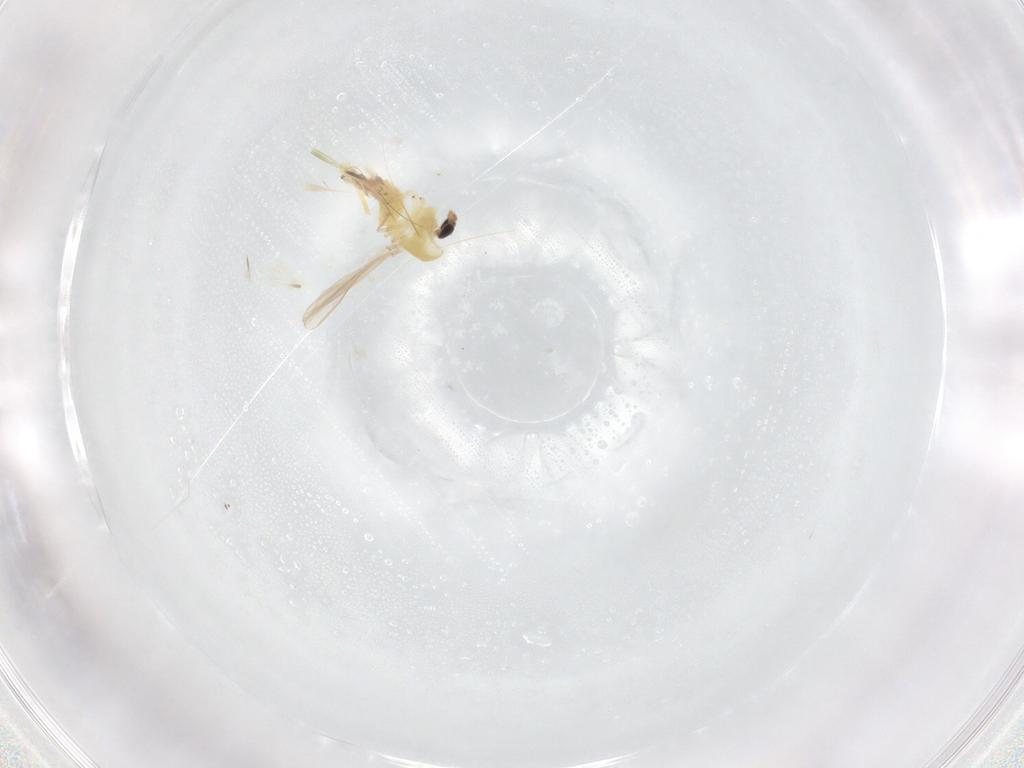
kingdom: Animalia
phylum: Arthropoda
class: Insecta
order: Diptera
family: Chironomidae
